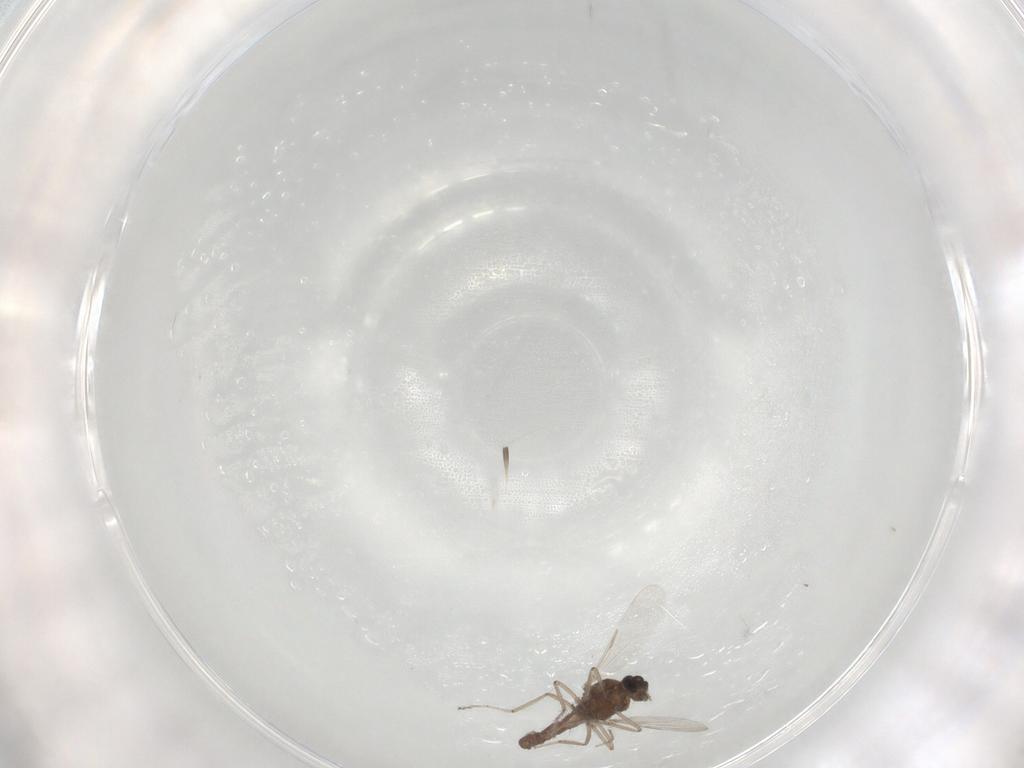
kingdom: Animalia
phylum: Arthropoda
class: Insecta
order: Diptera
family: Ceratopogonidae
